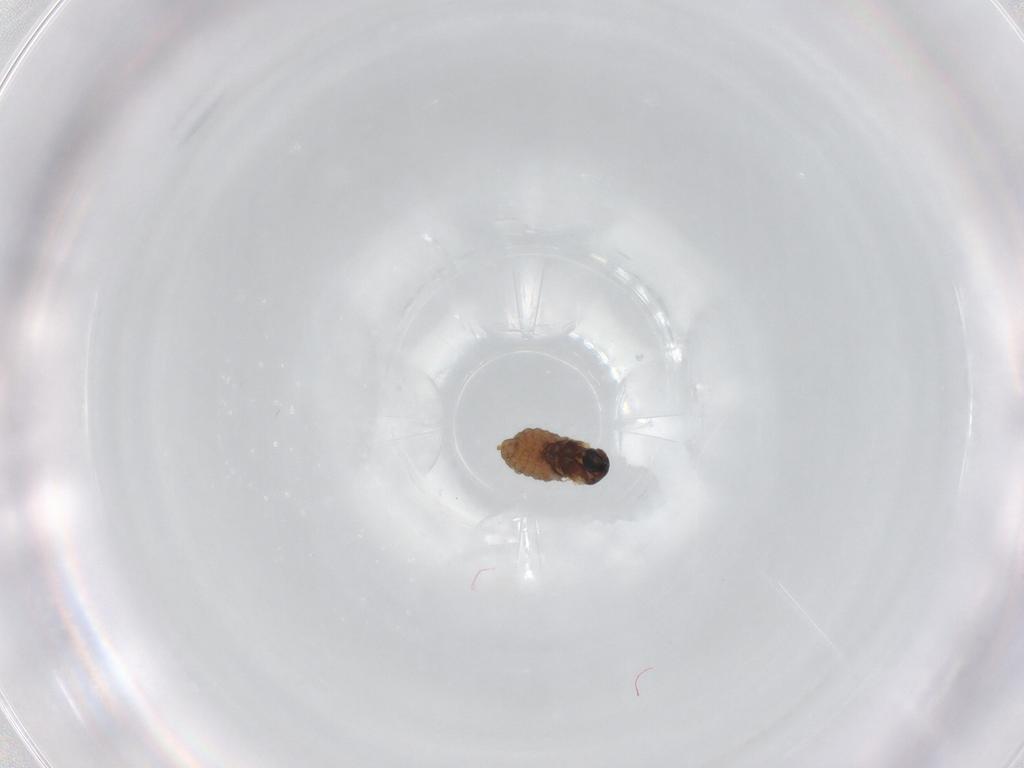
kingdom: Animalia
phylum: Arthropoda
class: Insecta
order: Diptera
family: Cecidomyiidae
